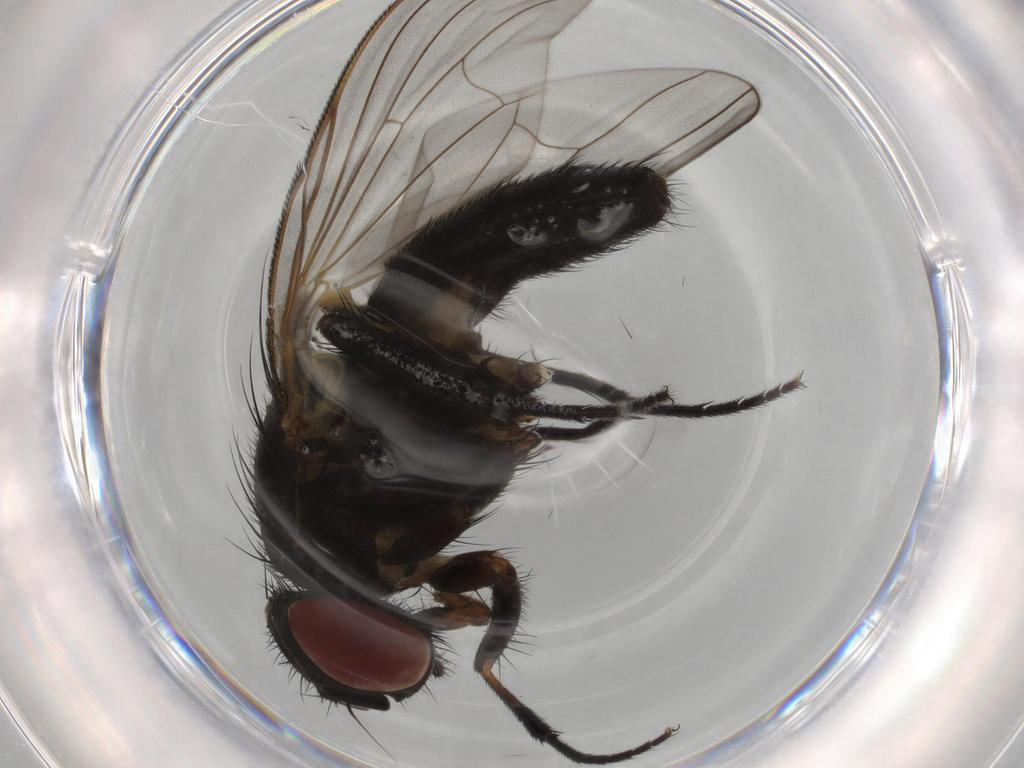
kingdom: Animalia
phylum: Arthropoda
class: Insecta
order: Diptera
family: Muscidae
